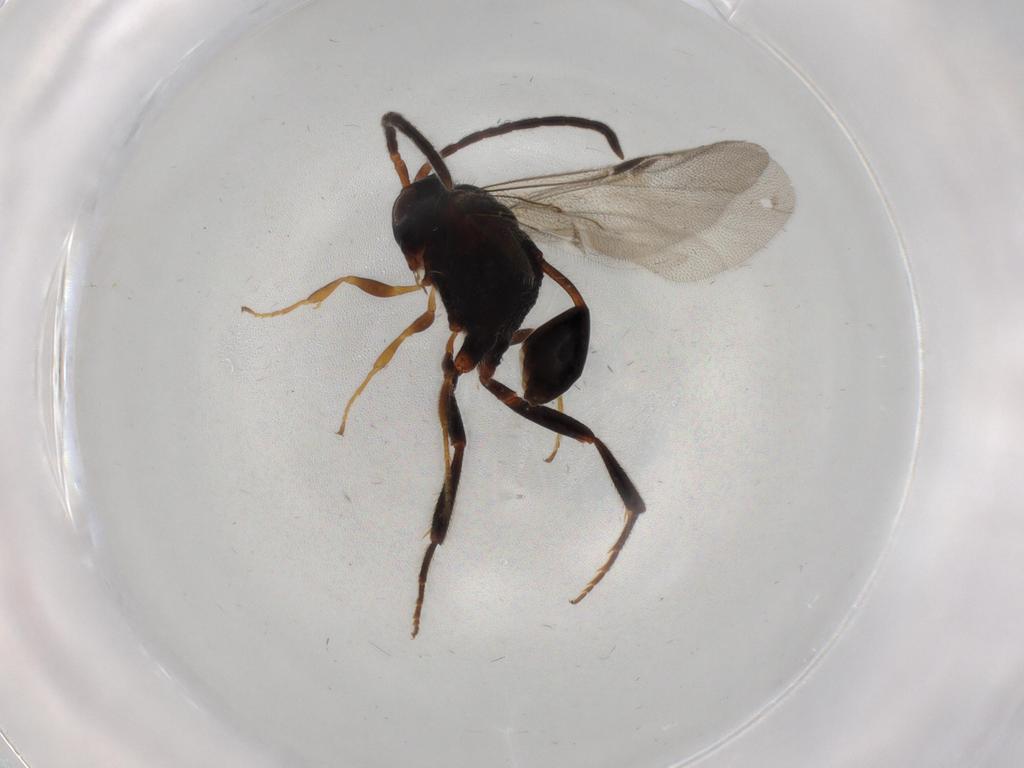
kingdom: Animalia
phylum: Arthropoda
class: Insecta
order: Hymenoptera
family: Evaniidae
